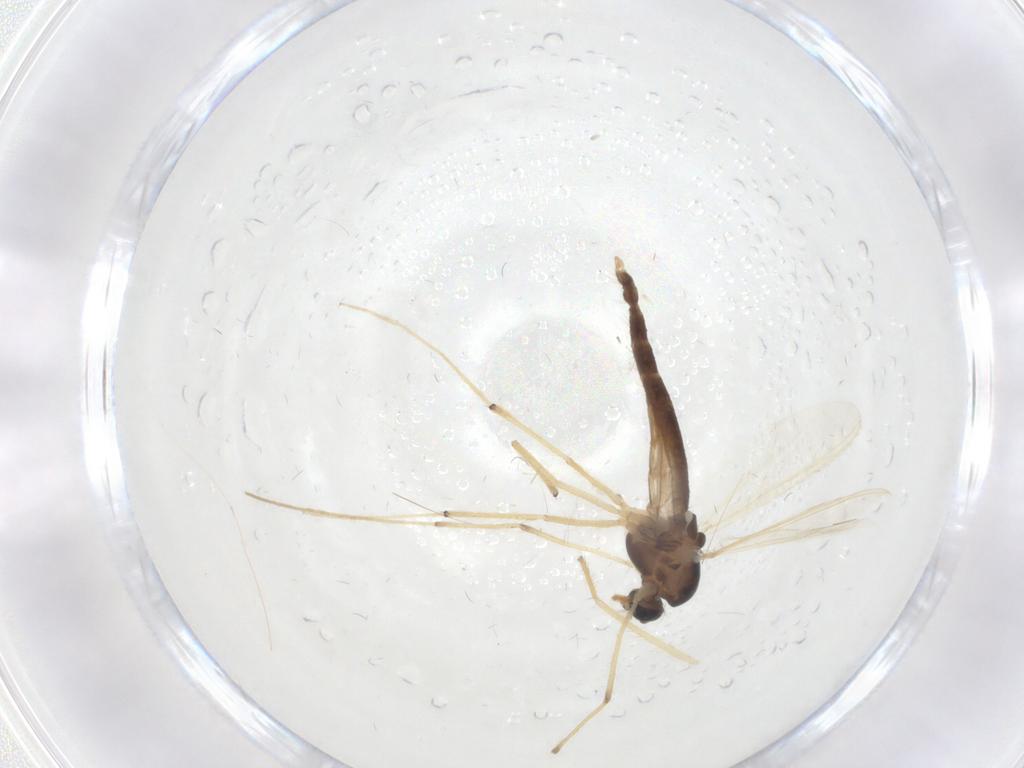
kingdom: Animalia
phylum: Arthropoda
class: Insecta
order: Diptera
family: Chironomidae
